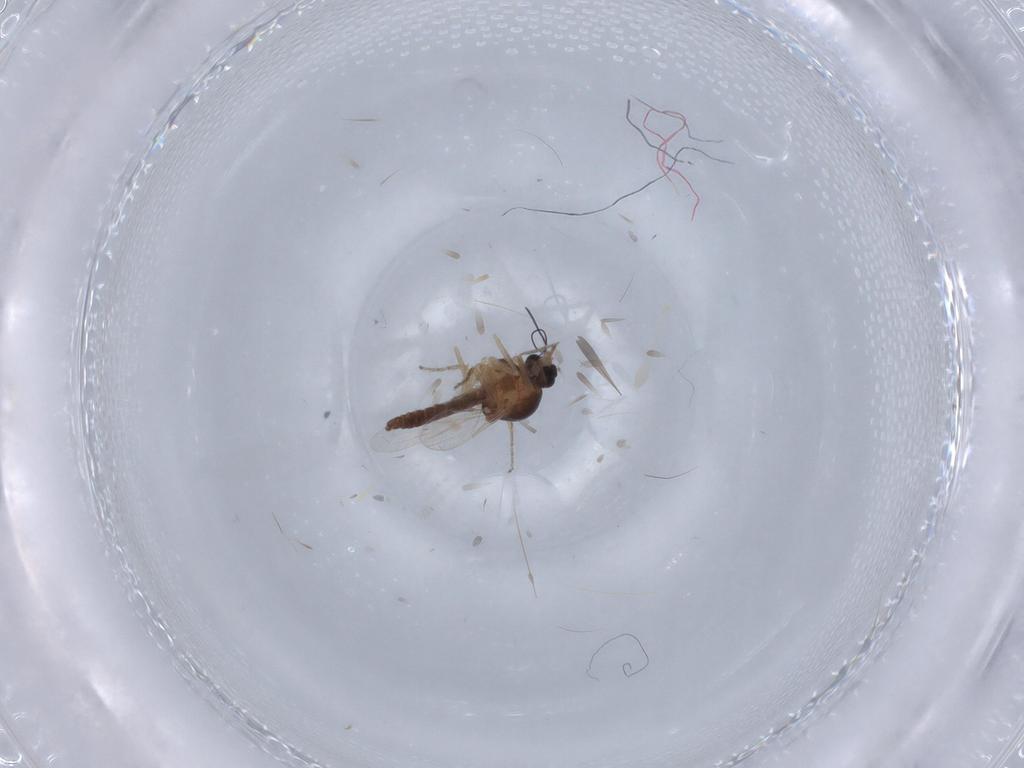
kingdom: Animalia
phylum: Arthropoda
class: Insecta
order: Diptera
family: Ceratopogonidae
